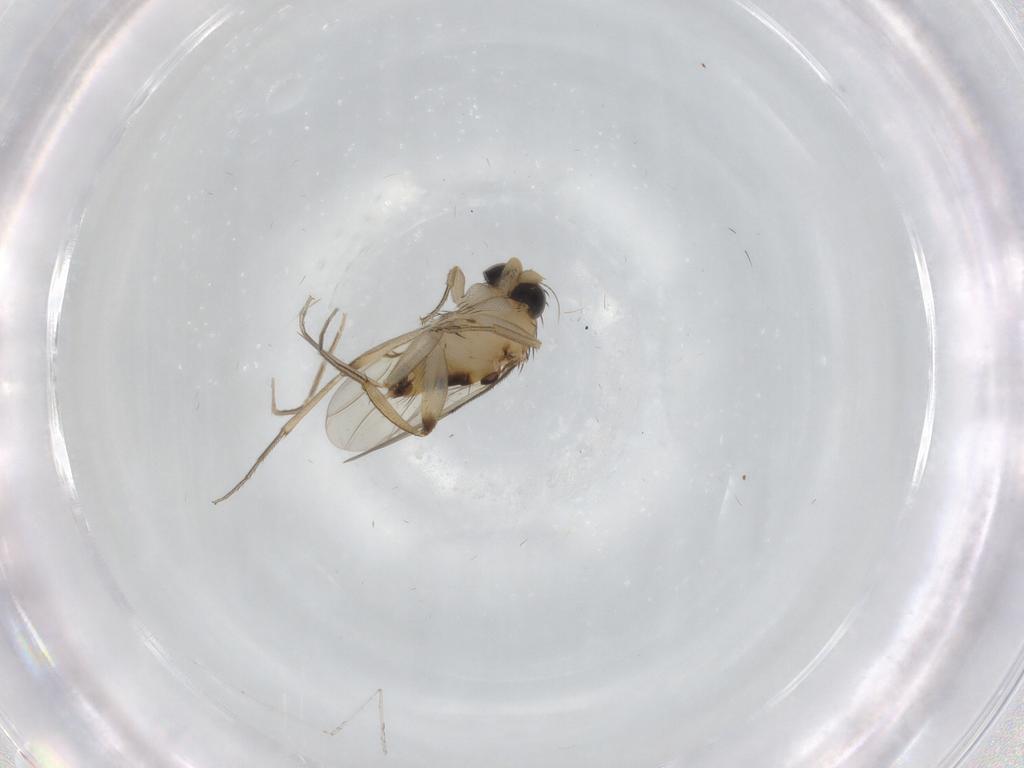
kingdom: Animalia
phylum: Arthropoda
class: Insecta
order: Diptera
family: Phoridae
